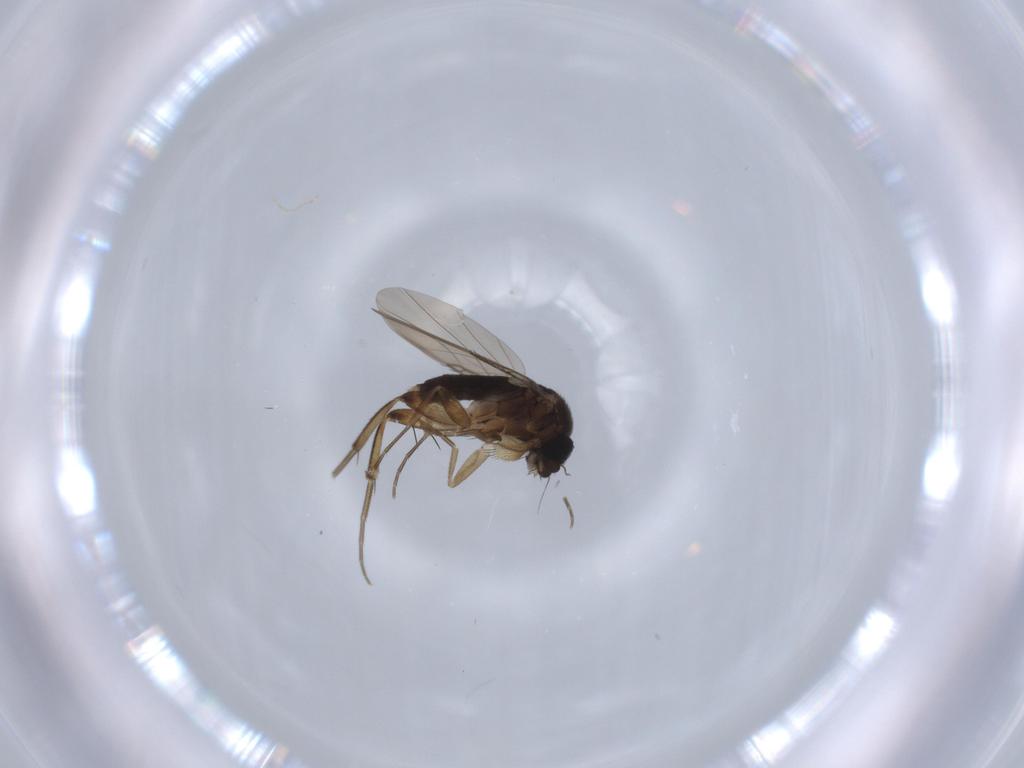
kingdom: Animalia
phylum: Arthropoda
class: Insecta
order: Diptera
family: Phoridae
